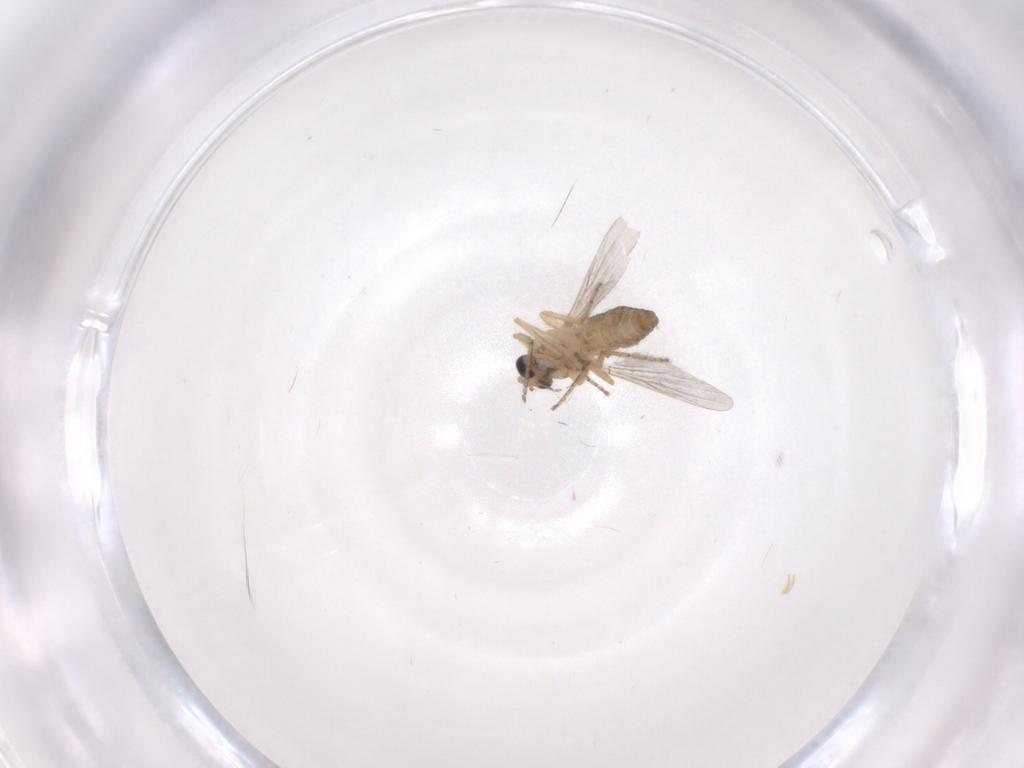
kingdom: Animalia
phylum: Arthropoda
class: Insecta
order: Diptera
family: Ceratopogonidae
